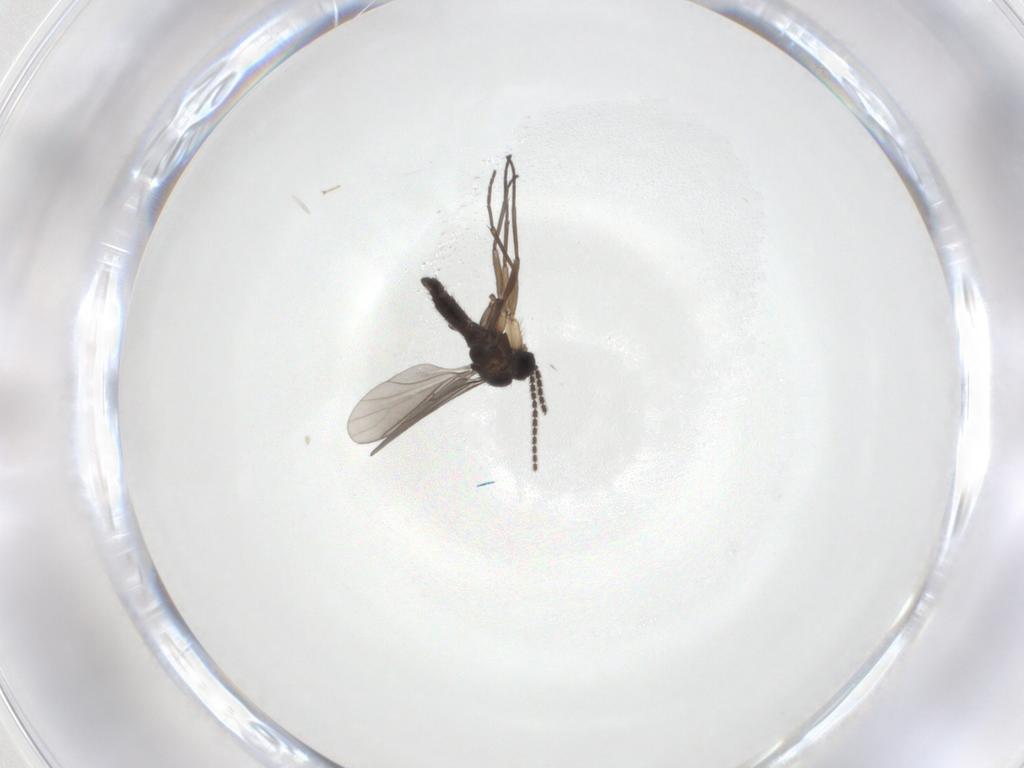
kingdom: Animalia
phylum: Arthropoda
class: Insecta
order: Diptera
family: Sciaridae
